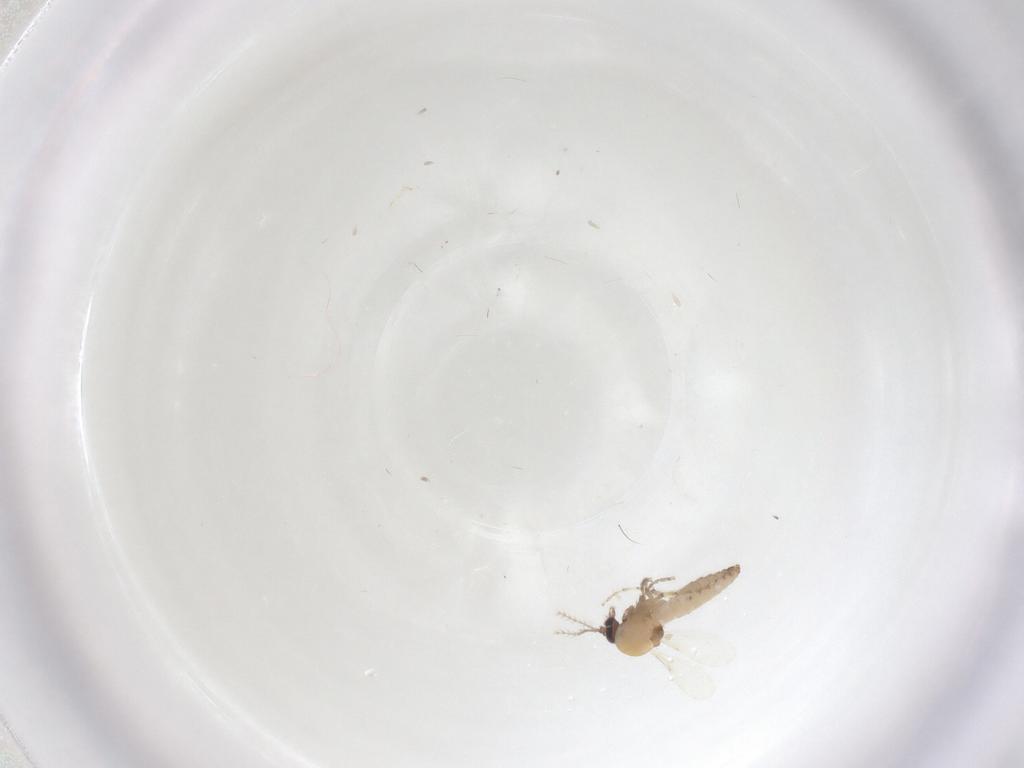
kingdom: Animalia
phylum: Arthropoda
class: Insecta
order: Diptera
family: Ceratopogonidae
